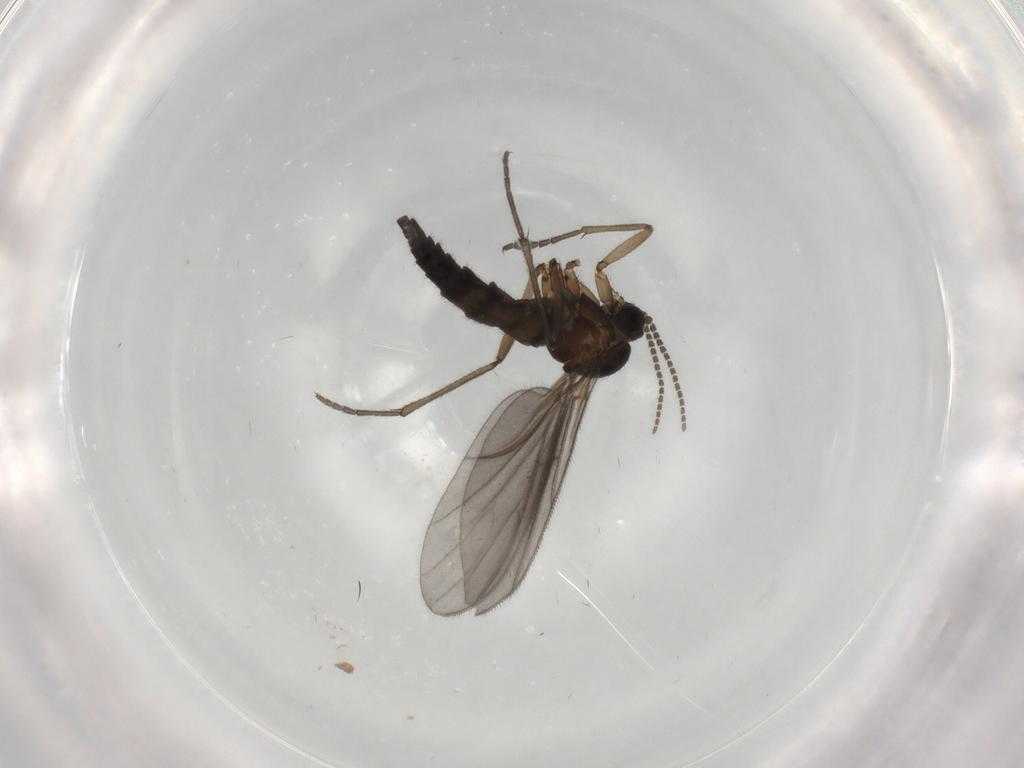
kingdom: Animalia
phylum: Arthropoda
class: Insecta
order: Diptera
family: Sciaridae
